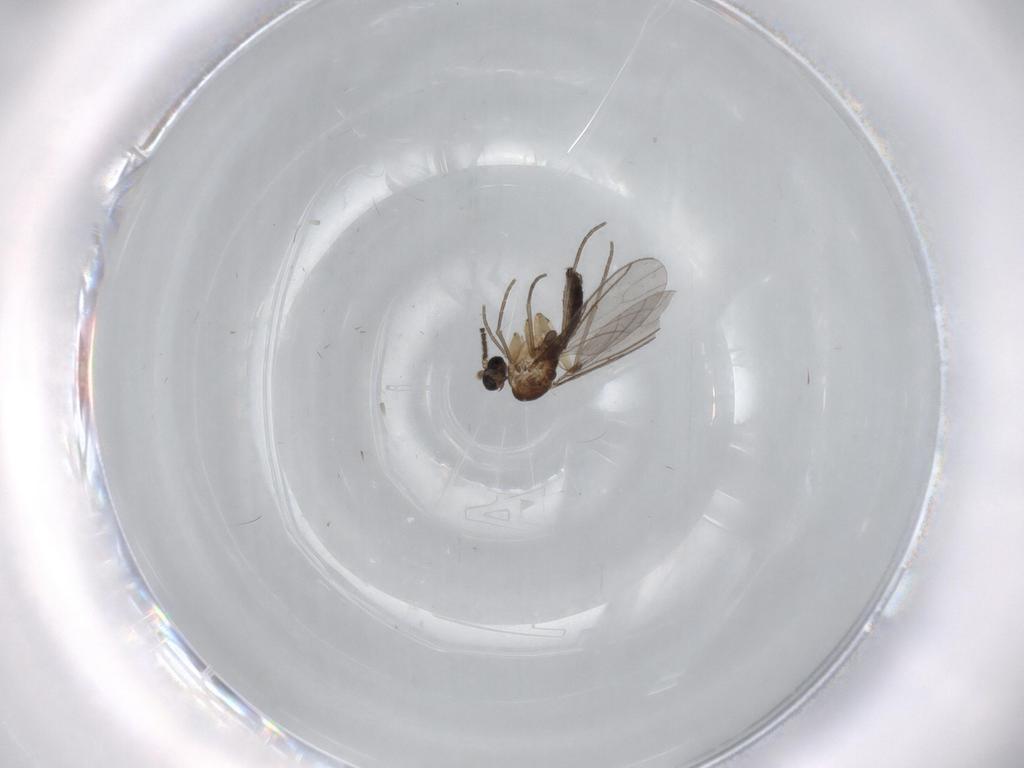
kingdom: Animalia
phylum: Arthropoda
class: Insecta
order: Diptera
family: Sciaridae
